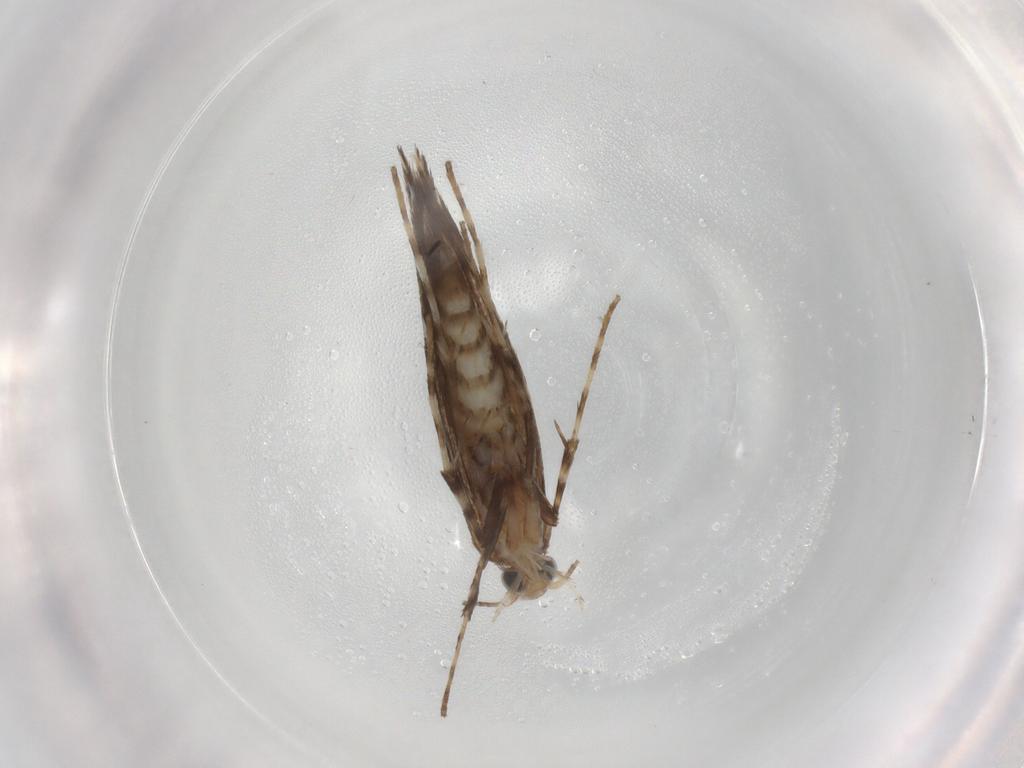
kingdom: Animalia
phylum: Arthropoda
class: Insecta
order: Lepidoptera
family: Gracillariidae
